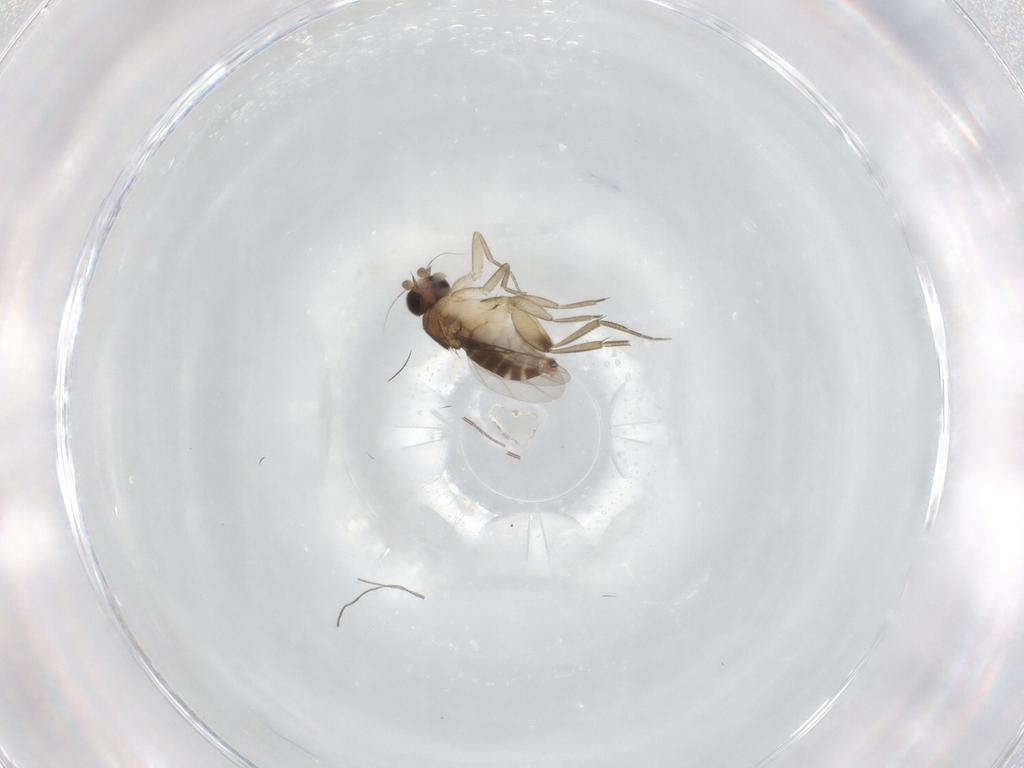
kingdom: Animalia
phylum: Arthropoda
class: Insecta
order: Diptera
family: Phoridae
